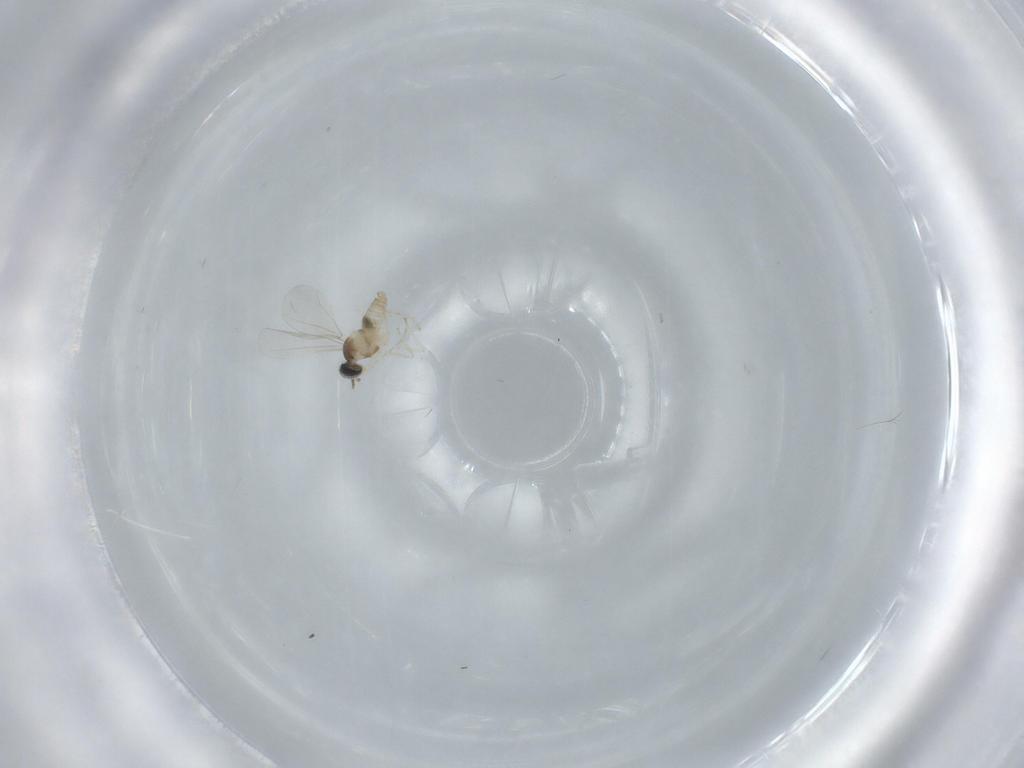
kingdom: Animalia
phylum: Arthropoda
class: Insecta
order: Diptera
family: Cecidomyiidae
